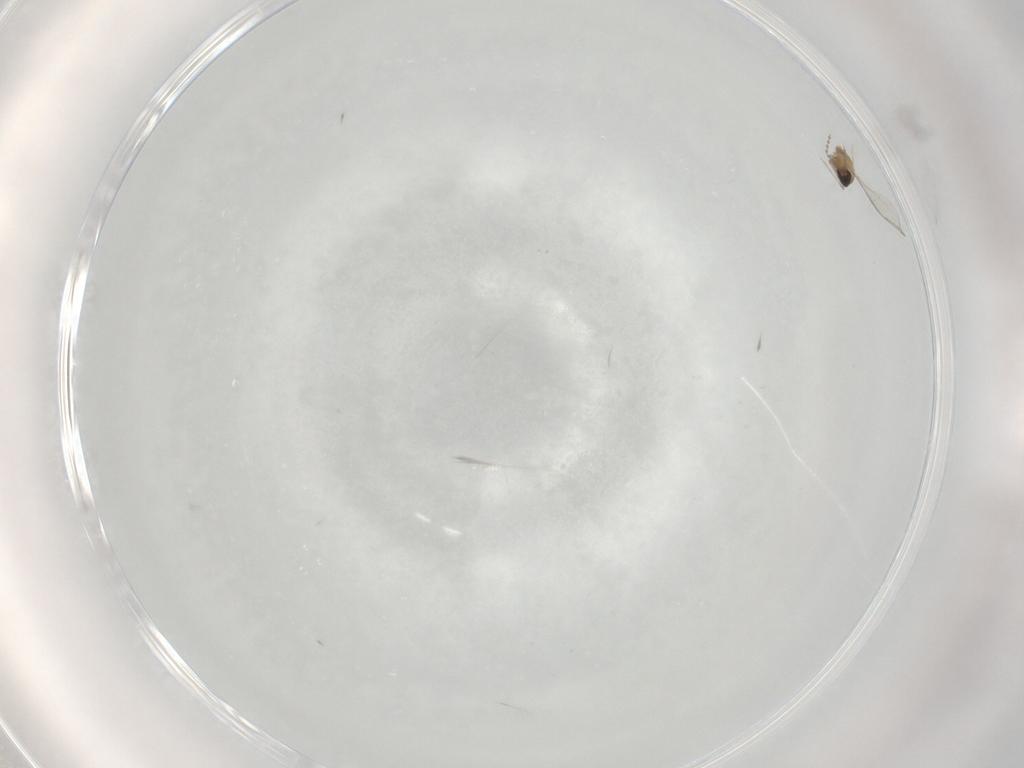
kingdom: Animalia
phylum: Arthropoda
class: Insecta
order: Diptera
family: Cecidomyiidae
